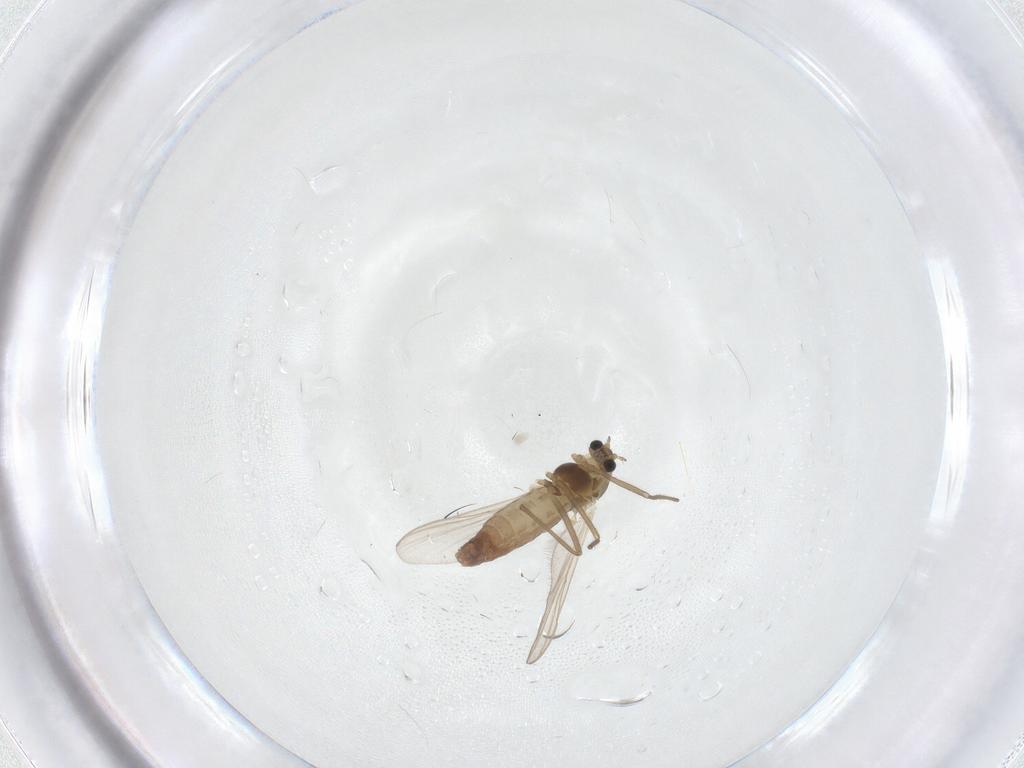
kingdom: Animalia
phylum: Arthropoda
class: Insecta
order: Diptera
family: Chironomidae
